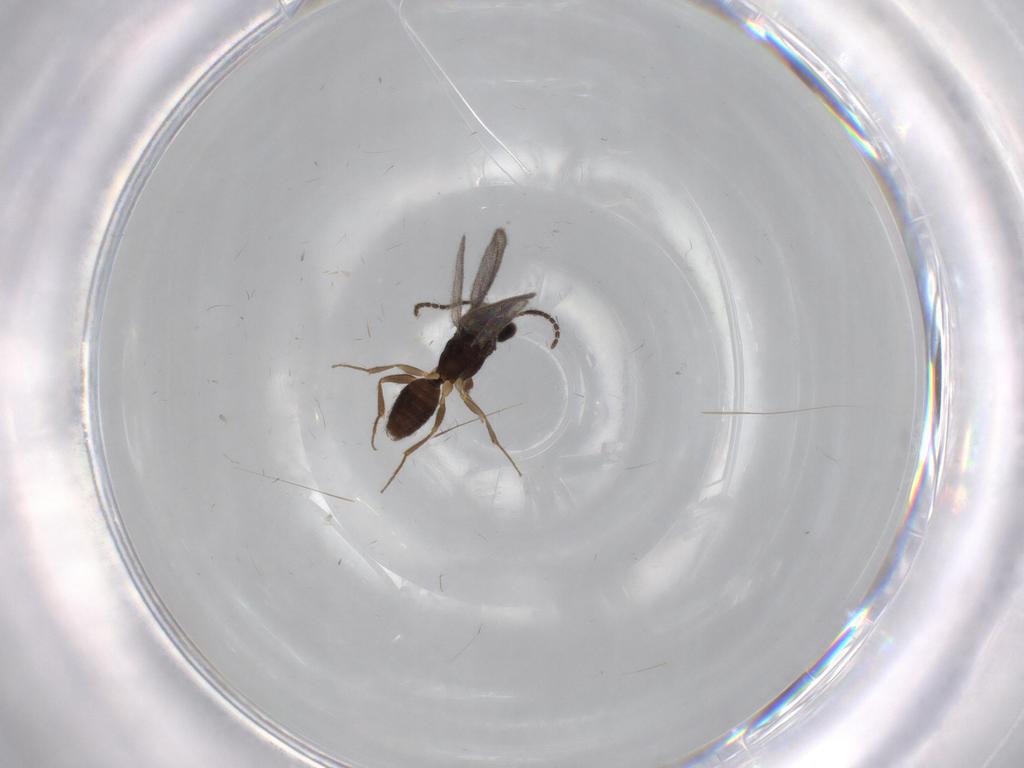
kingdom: Animalia
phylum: Arthropoda
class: Insecta
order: Hymenoptera
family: Bethylidae
